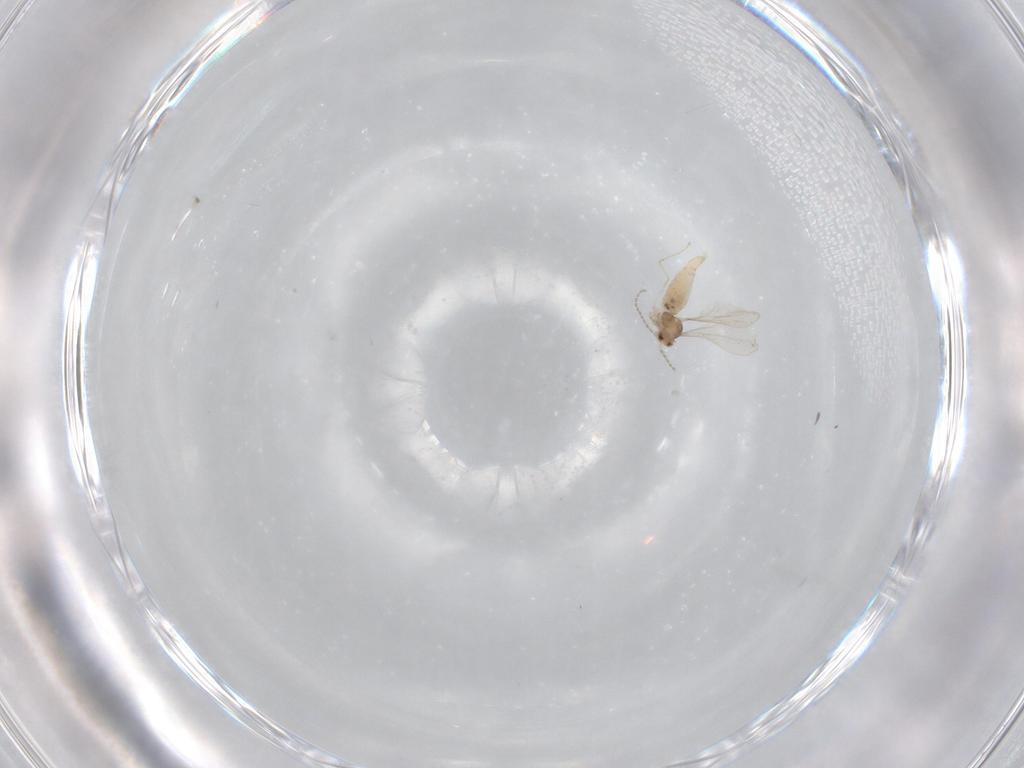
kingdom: Animalia
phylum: Arthropoda
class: Insecta
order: Diptera
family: Cecidomyiidae
